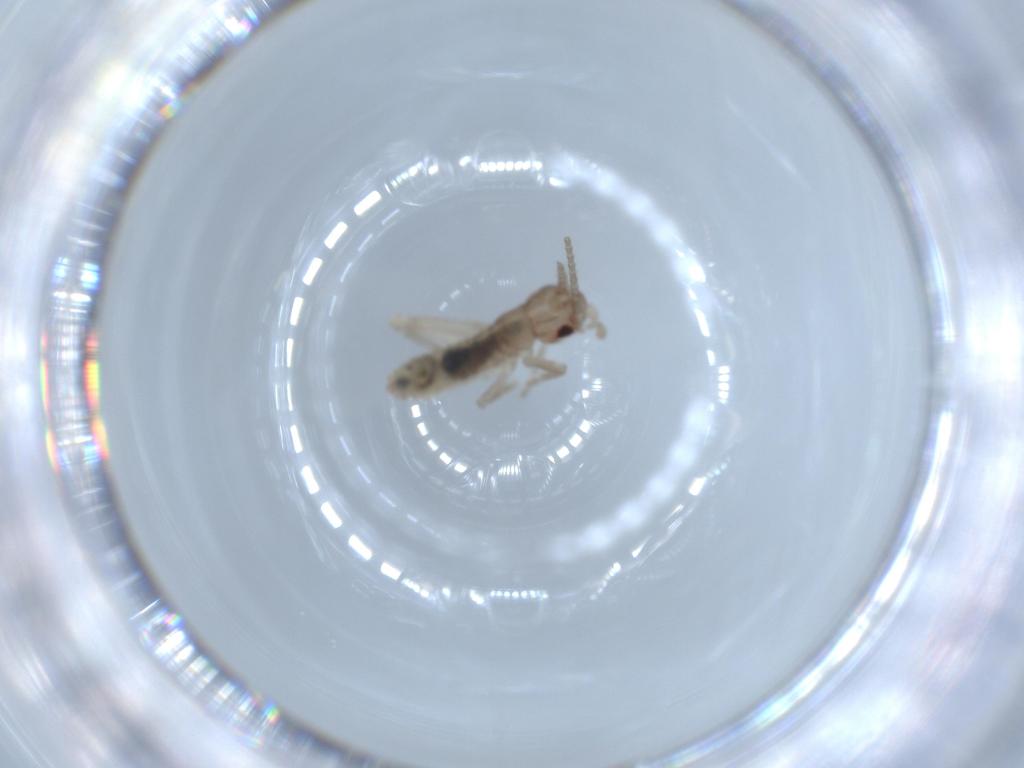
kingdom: Animalia
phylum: Arthropoda
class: Insecta
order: Orthoptera
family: Mogoplistidae
